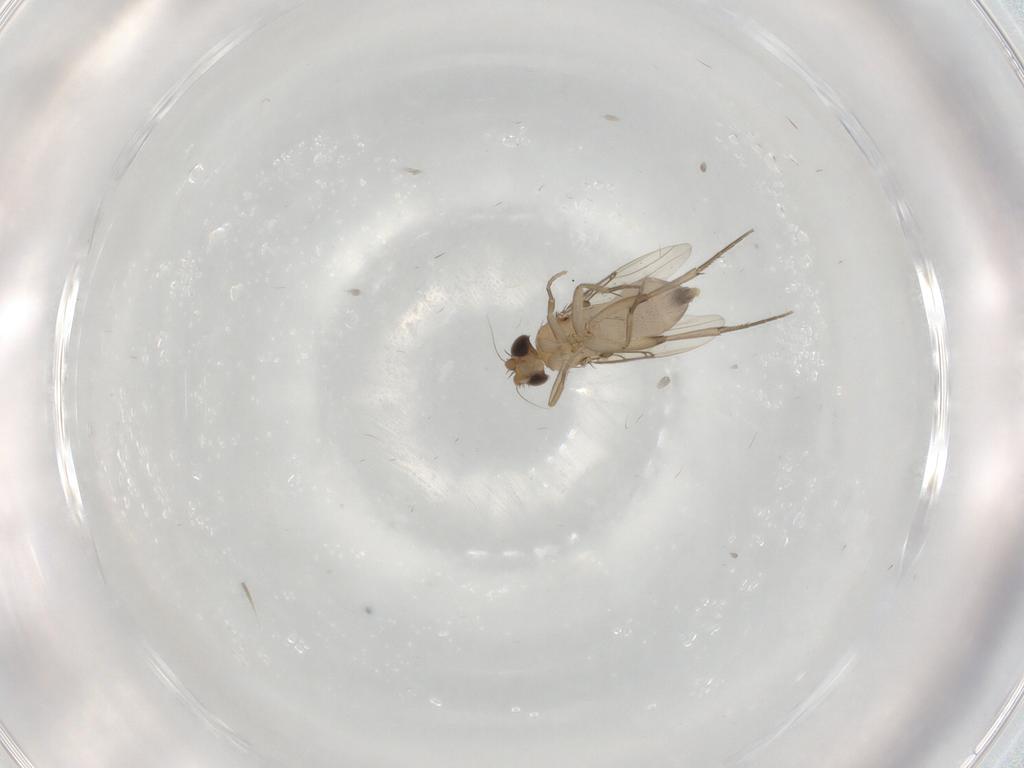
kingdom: Animalia
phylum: Arthropoda
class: Insecta
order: Diptera
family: Phoridae
